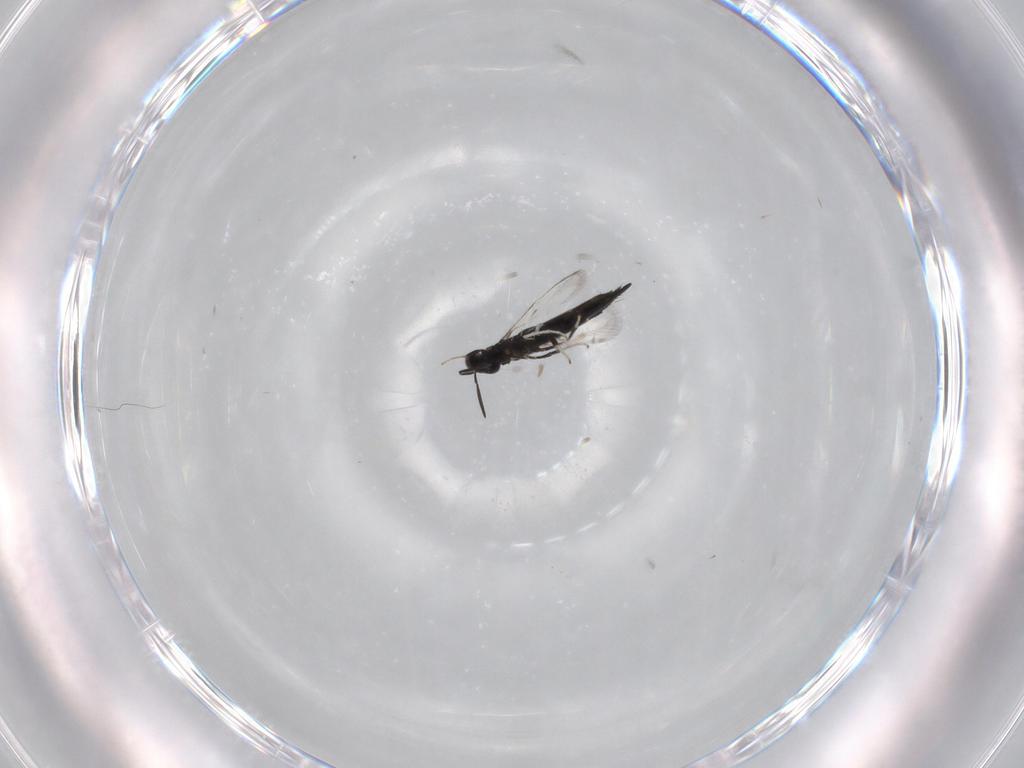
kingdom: Animalia
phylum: Arthropoda
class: Insecta
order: Hymenoptera
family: Signiphoridae
